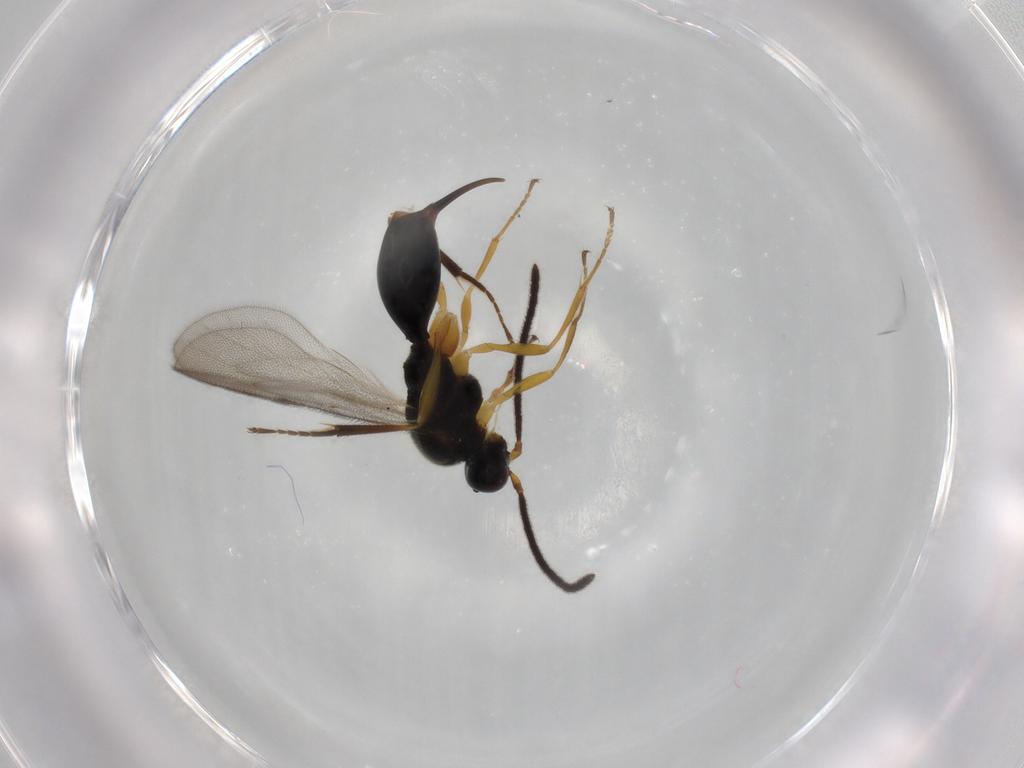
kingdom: Animalia
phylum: Arthropoda
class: Insecta
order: Hymenoptera
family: Proctotrupidae
